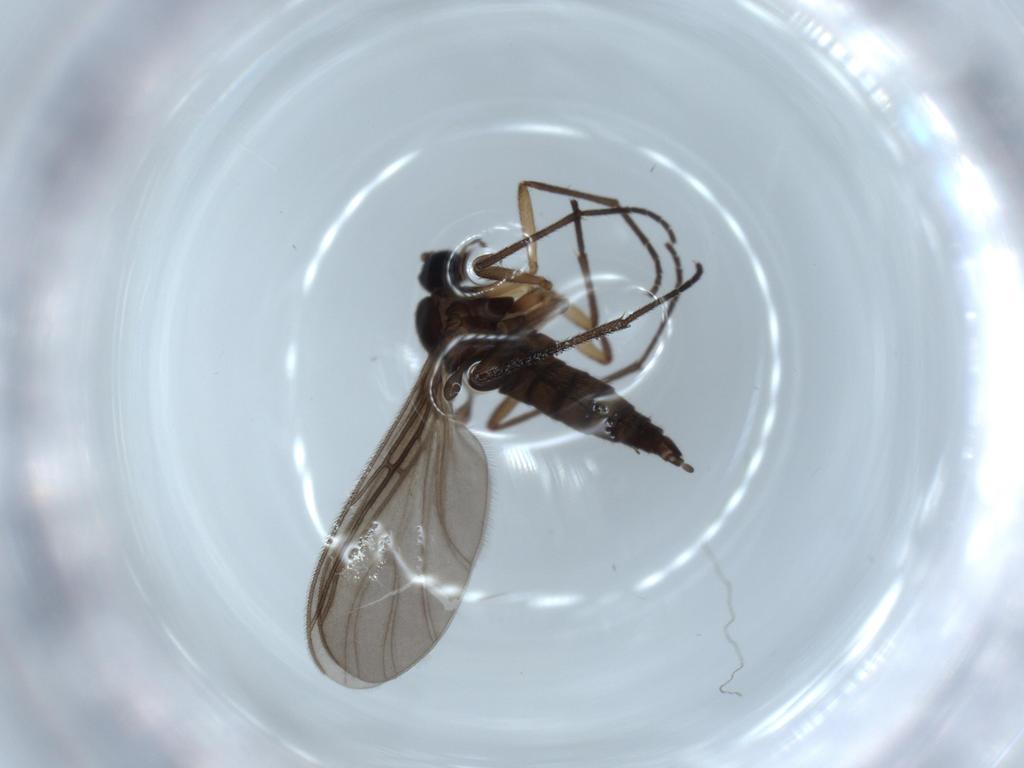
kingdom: Animalia
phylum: Arthropoda
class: Insecta
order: Diptera
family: Sciaridae
